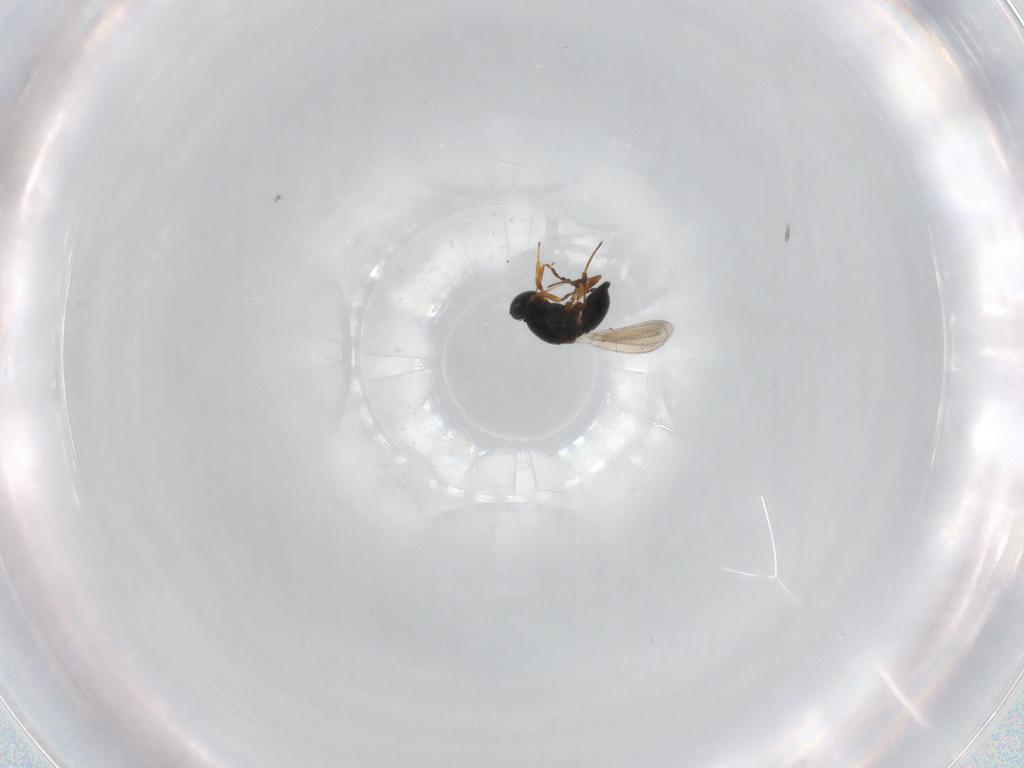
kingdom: Animalia
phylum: Arthropoda
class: Insecta
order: Hymenoptera
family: Platygastridae
